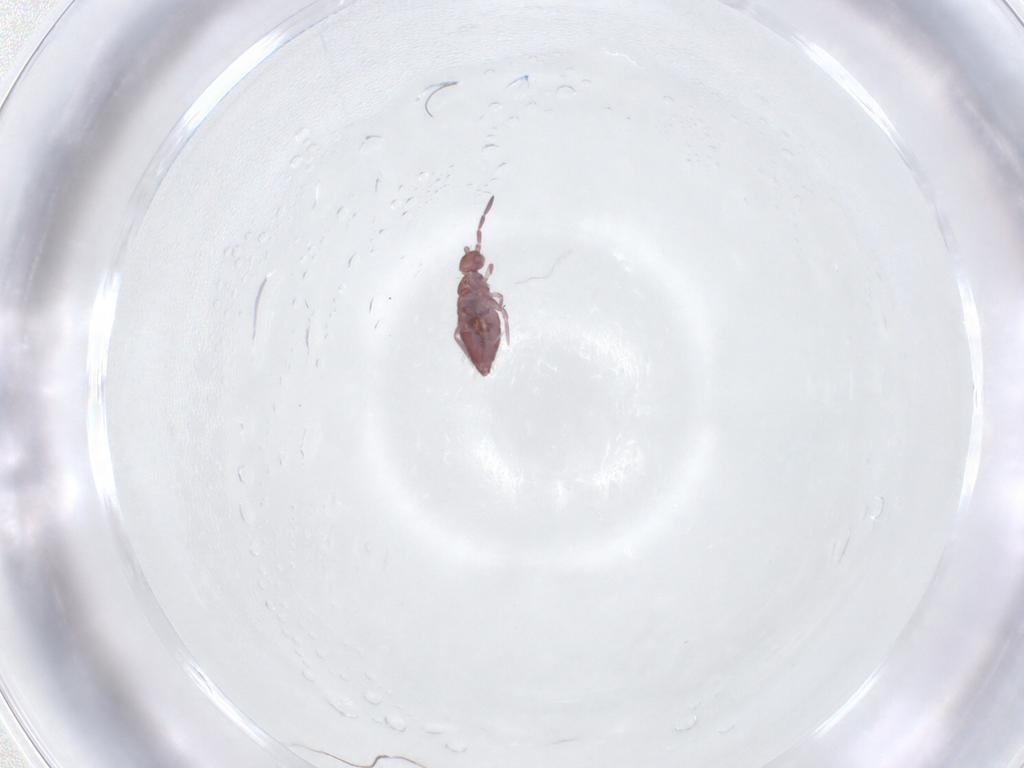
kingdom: Animalia
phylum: Arthropoda
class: Collembola
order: Entomobryomorpha
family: Entomobryidae
